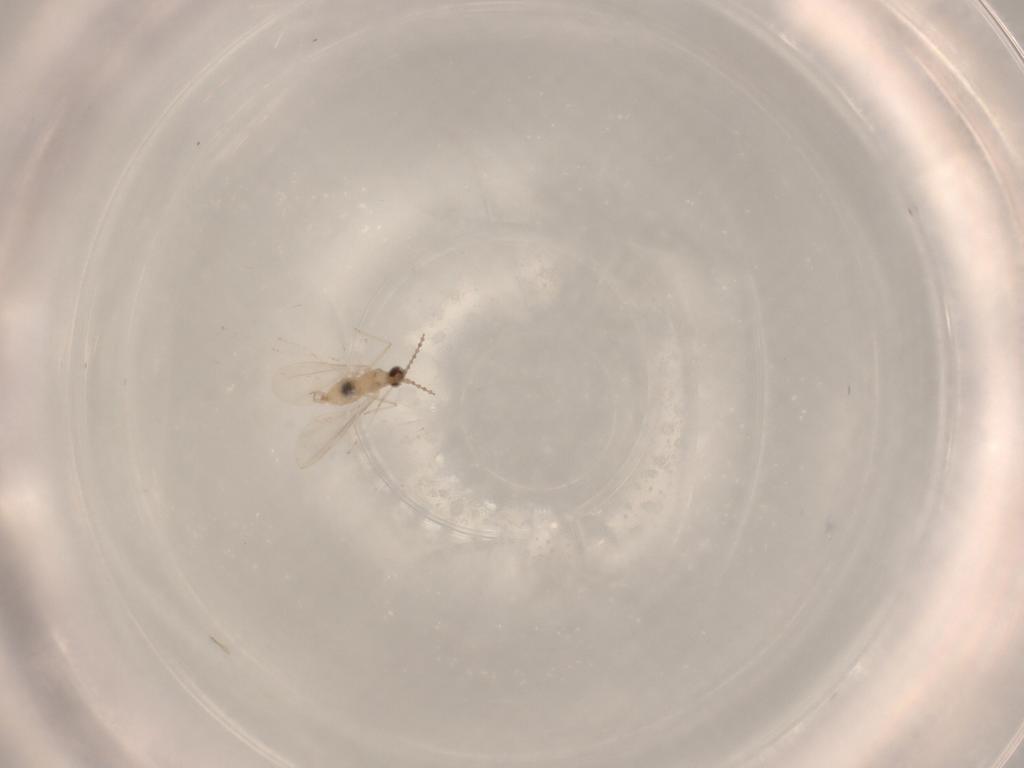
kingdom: Animalia
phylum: Arthropoda
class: Insecta
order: Diptera
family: Cecidomyiidae
